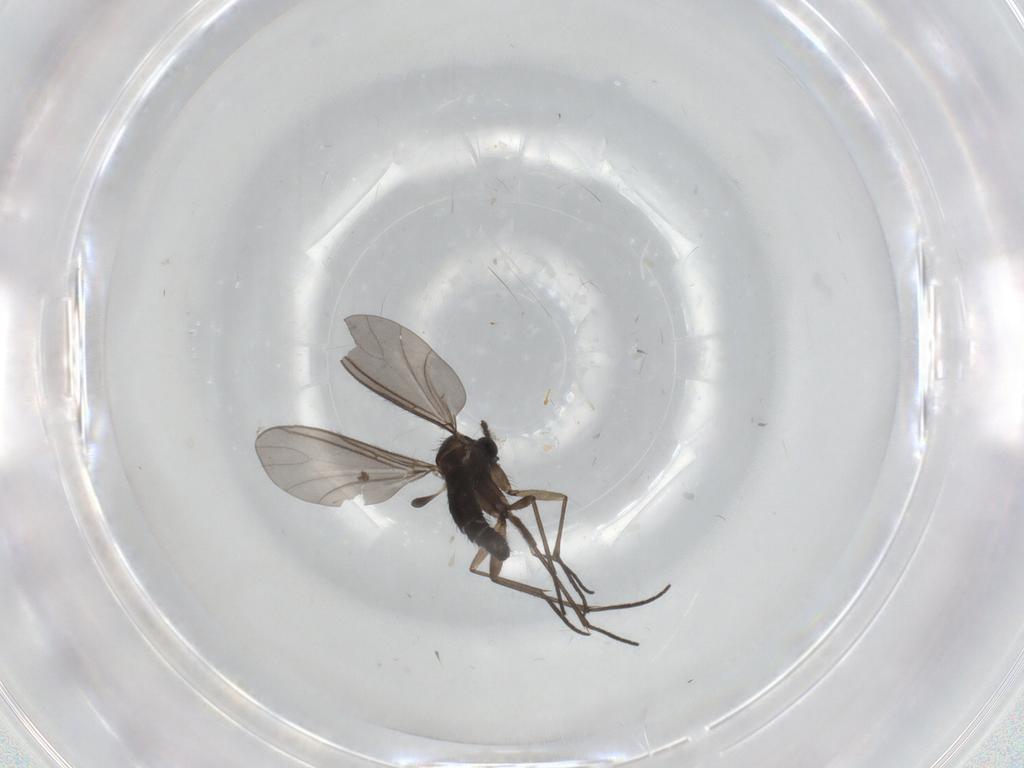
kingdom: Animalia
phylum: Arthropoda
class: Insecta
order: Diptera
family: Sciaridae
